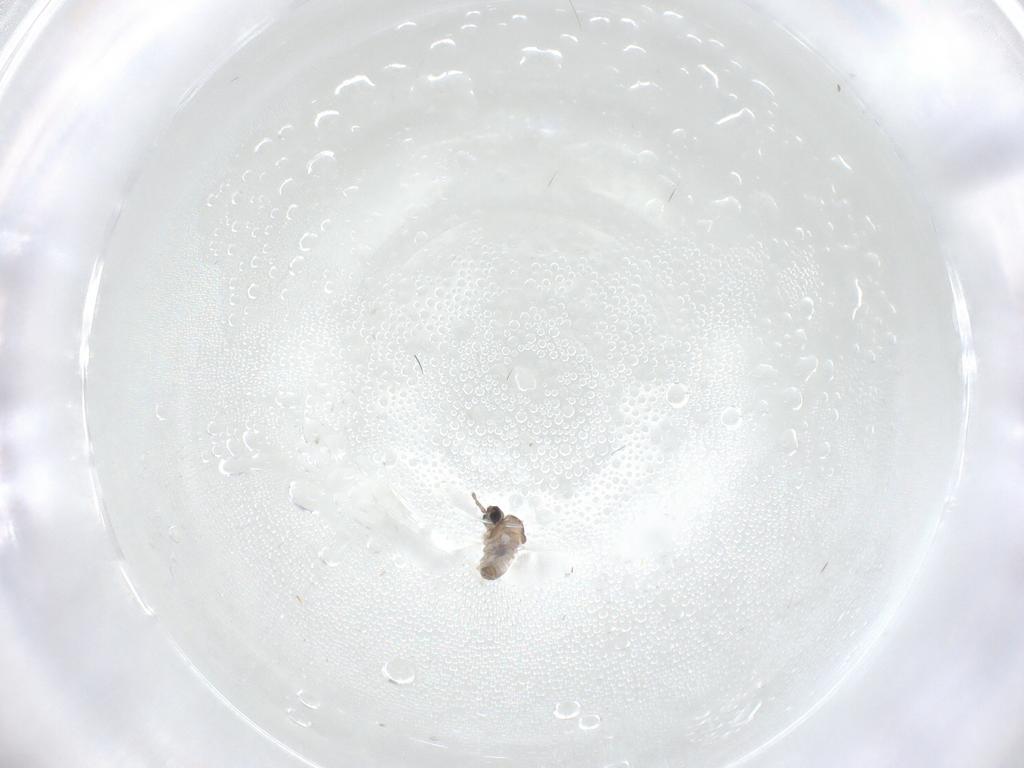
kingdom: Animalia
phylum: Arthropoda
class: Insecta
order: Diptera
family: Cecidomyiidae
